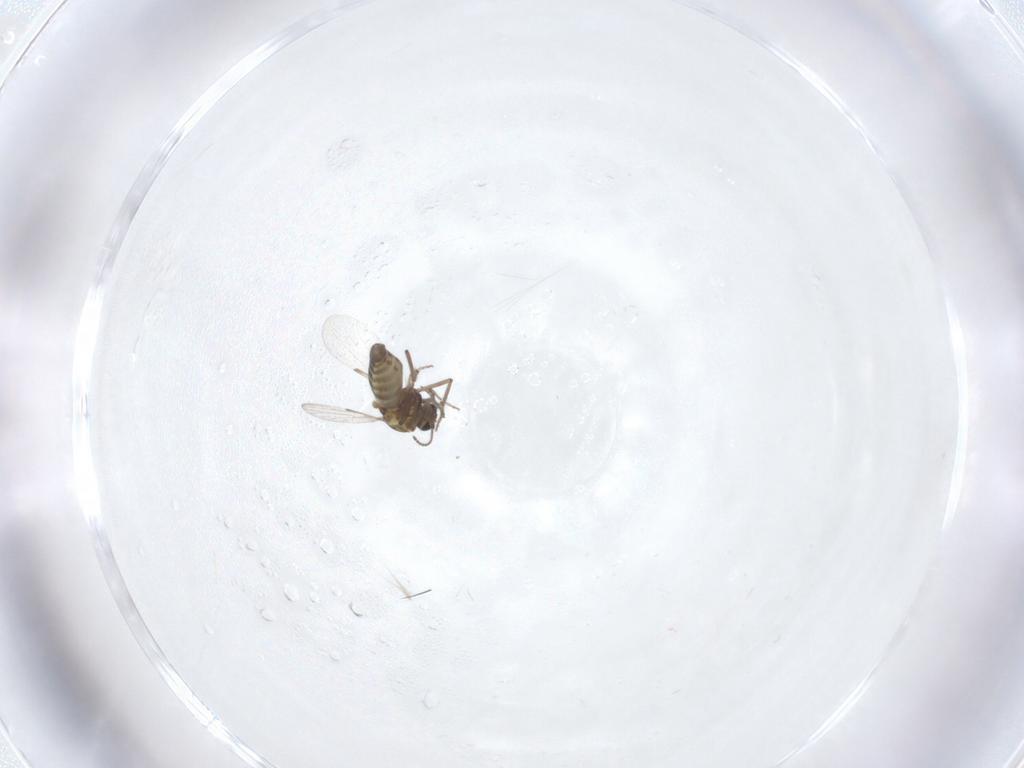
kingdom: Animalia
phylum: Arthropoda
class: Insecta
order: Diptera
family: Ceratopogonidae
